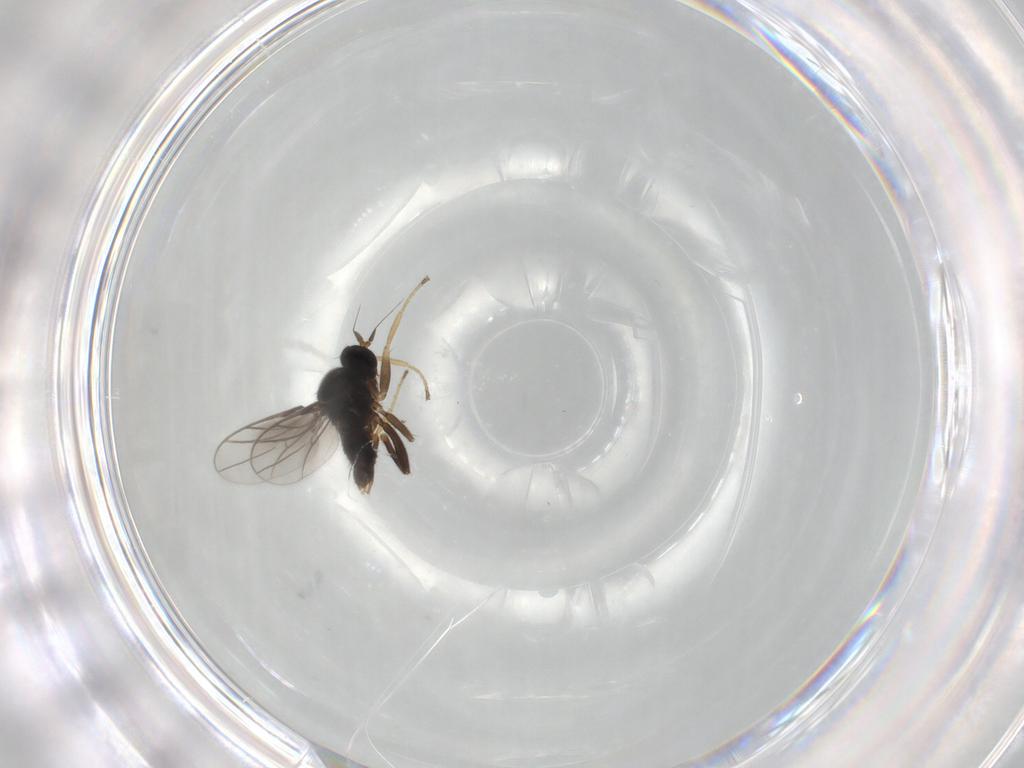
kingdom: Animalia
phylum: Arthropoda
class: Insecta
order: Diptera
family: Hybotidae
